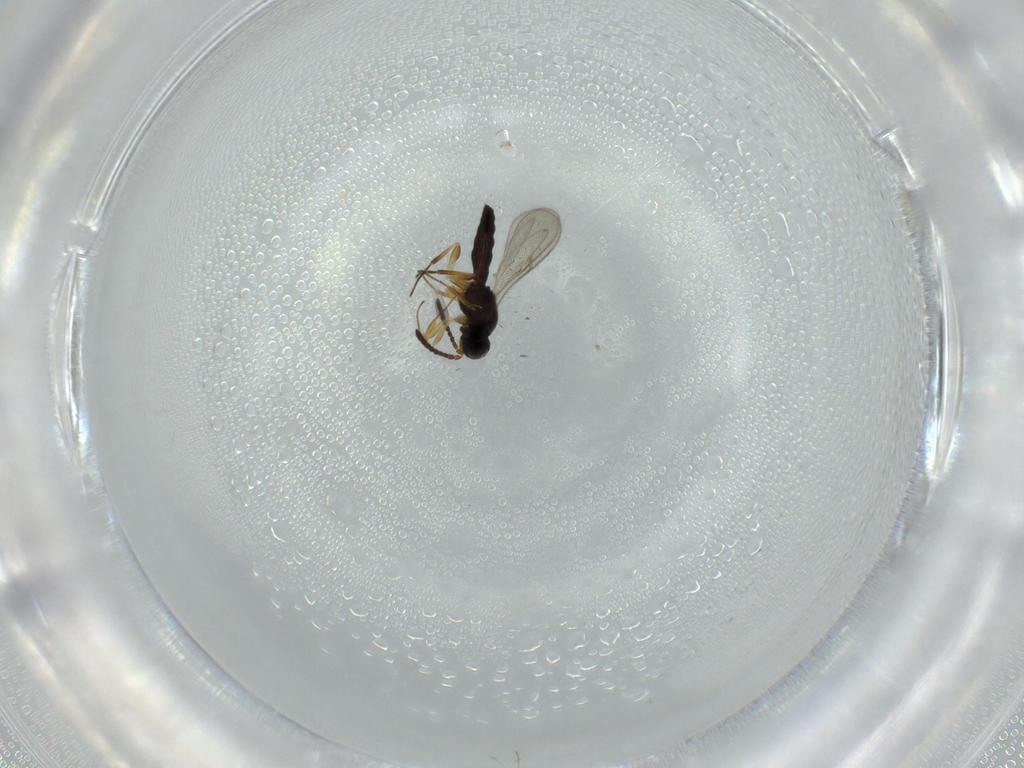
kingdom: Animalia
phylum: Arthropoda
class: Insecta
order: Hymenoptera
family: Scelionidae
